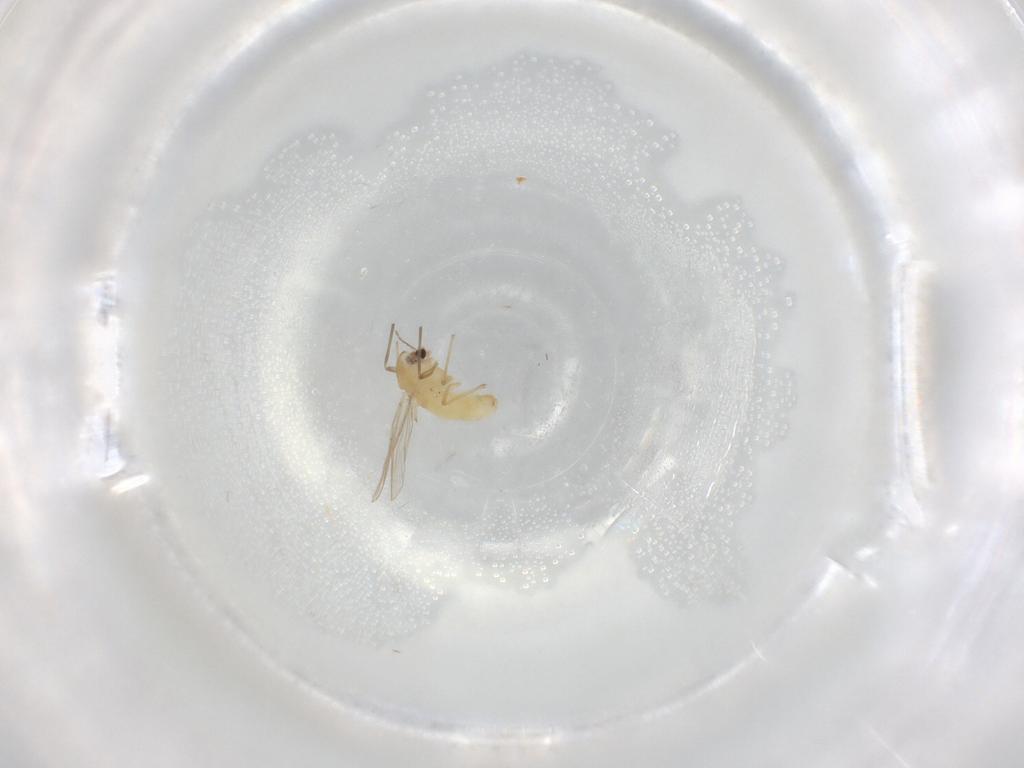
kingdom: Animalia
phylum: Arthropoda
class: Insecta
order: Diptera
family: Chironomidae
